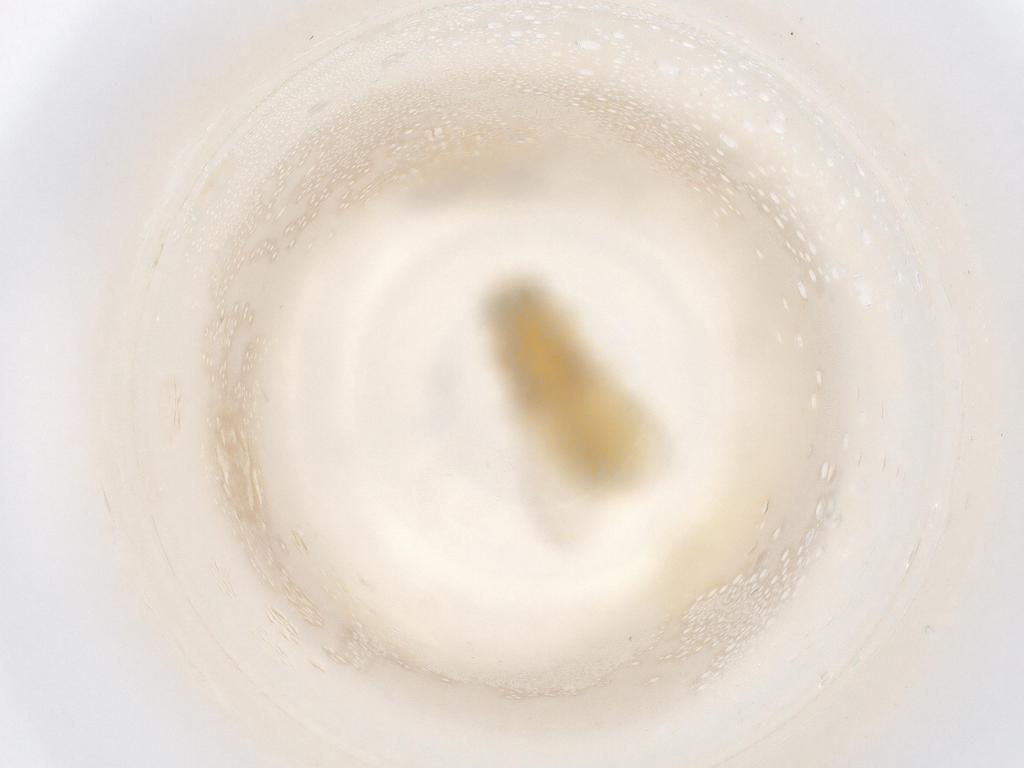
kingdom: Animalia
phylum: Arthropoda
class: Insecta
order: Diptera
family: Chyromyidae
